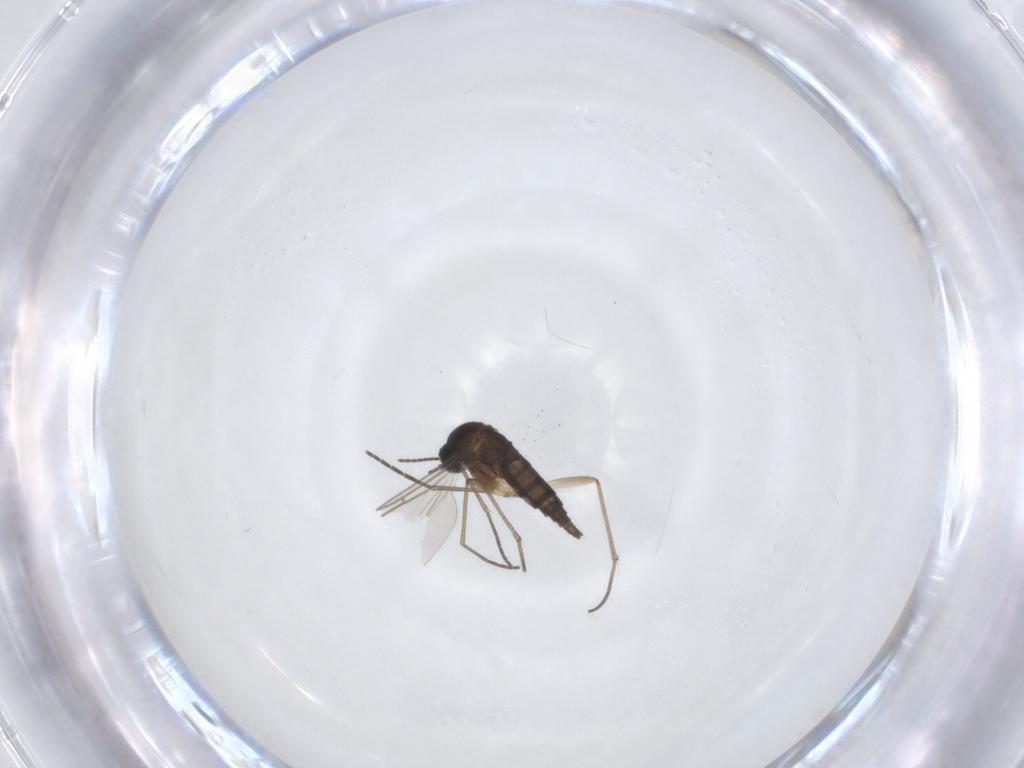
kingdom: Animalia
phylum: Arthropoda
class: Insecta
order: Diptera
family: Sciaridae
